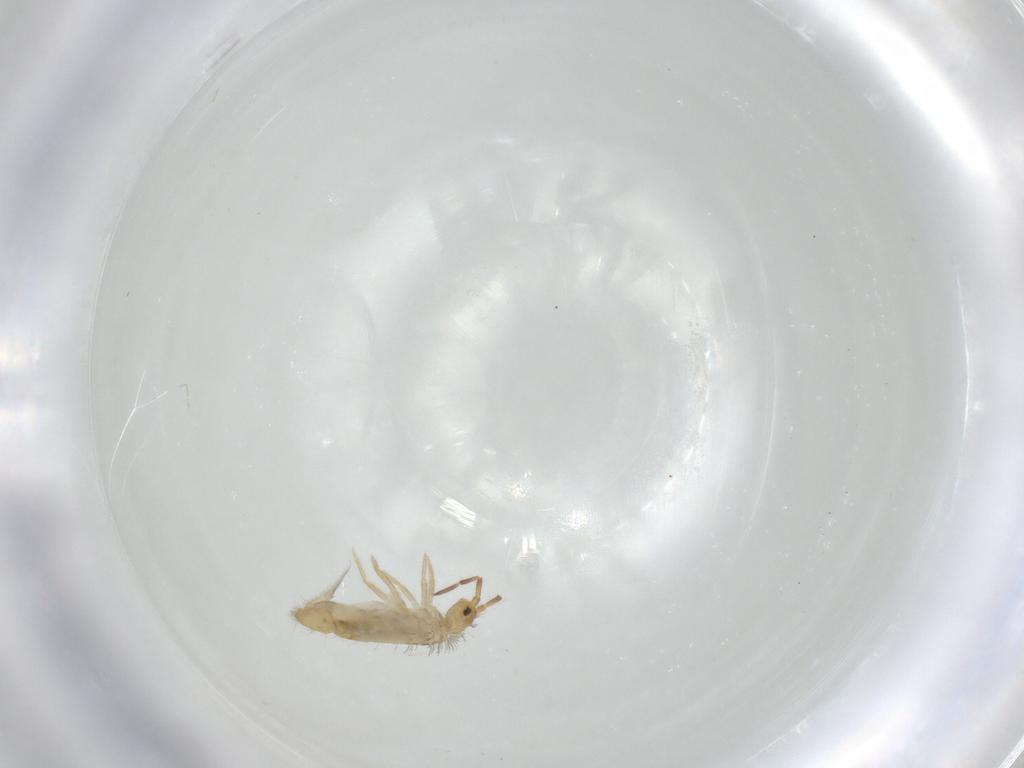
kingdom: Animalia
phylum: Arthropoda
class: Collembola
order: Entomobryomorpha
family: Entomobryidae
